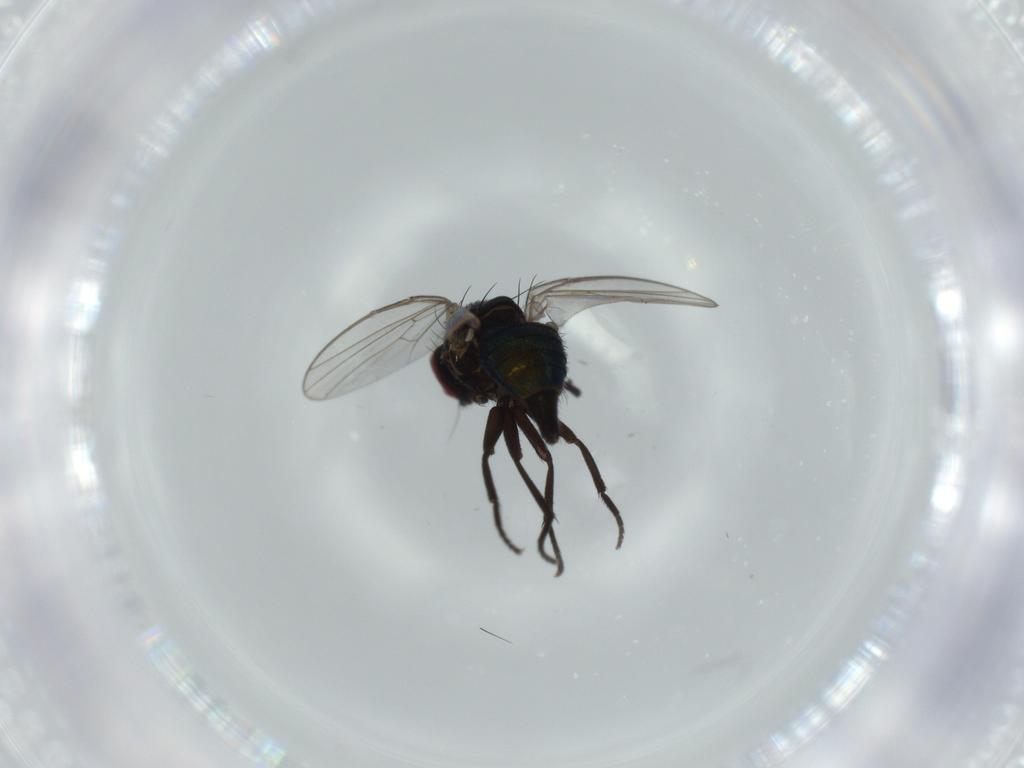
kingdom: Animalia
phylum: Arthropoda
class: Insecta
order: Diptera
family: Agromyzidae
